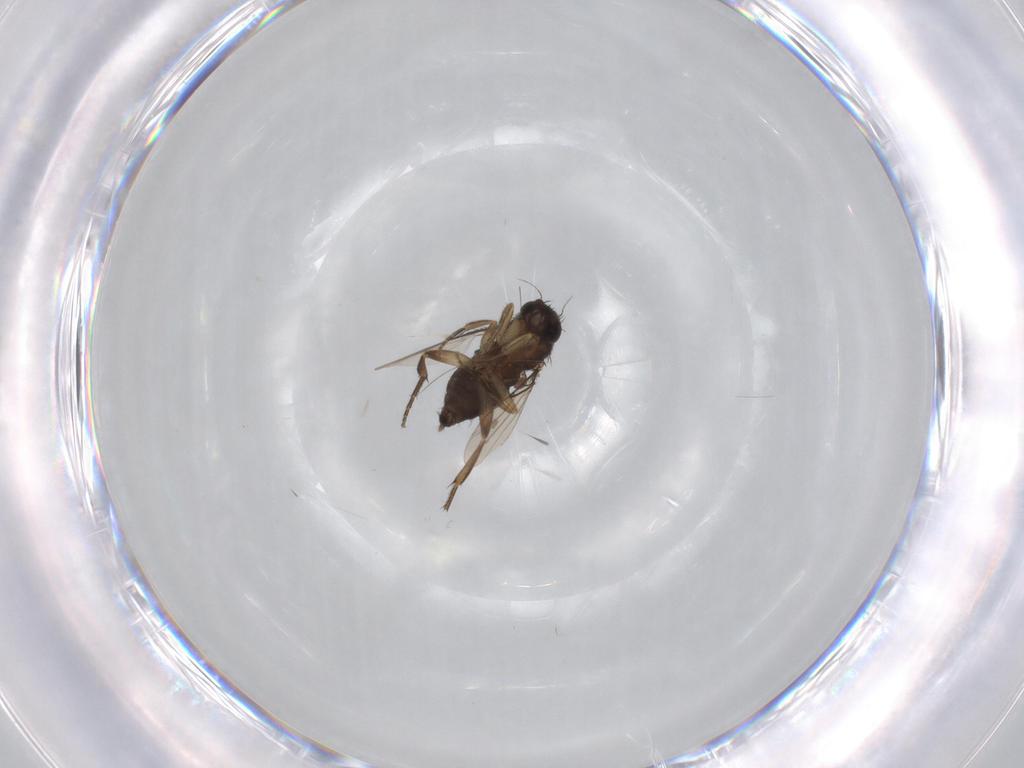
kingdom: Animalia
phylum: Arthropoda
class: Insecta
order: Diptera
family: Phoridae
